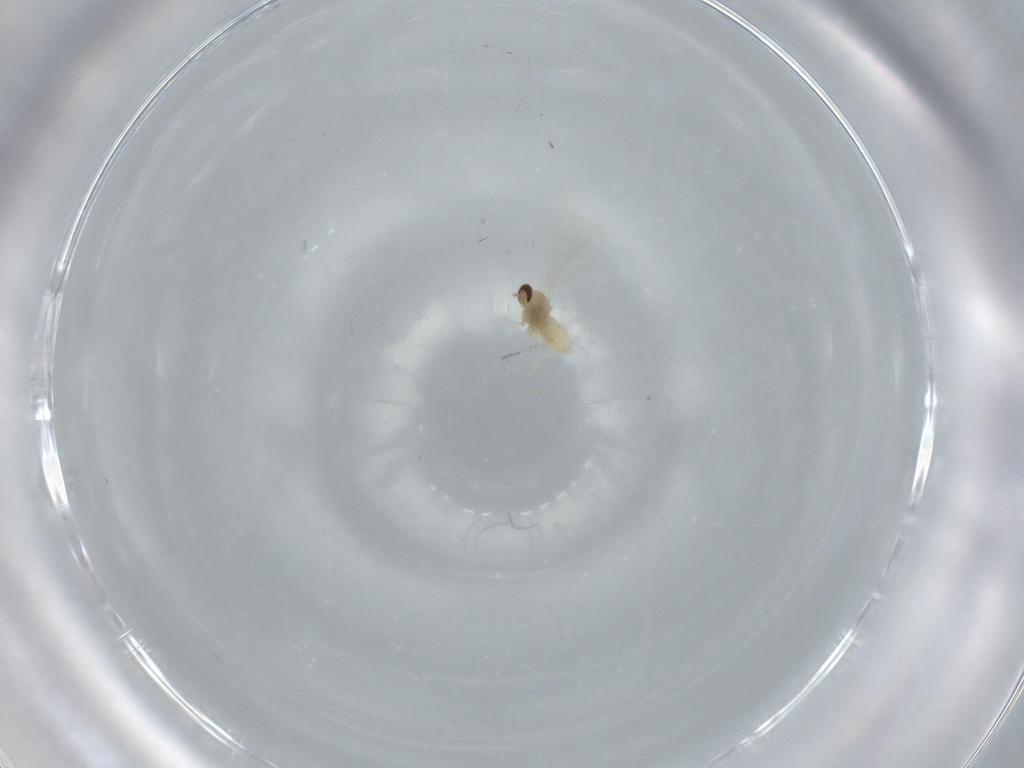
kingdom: Animalia
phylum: Arthropoda
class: Insecta
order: Diptera
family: Cecidomyiidae
